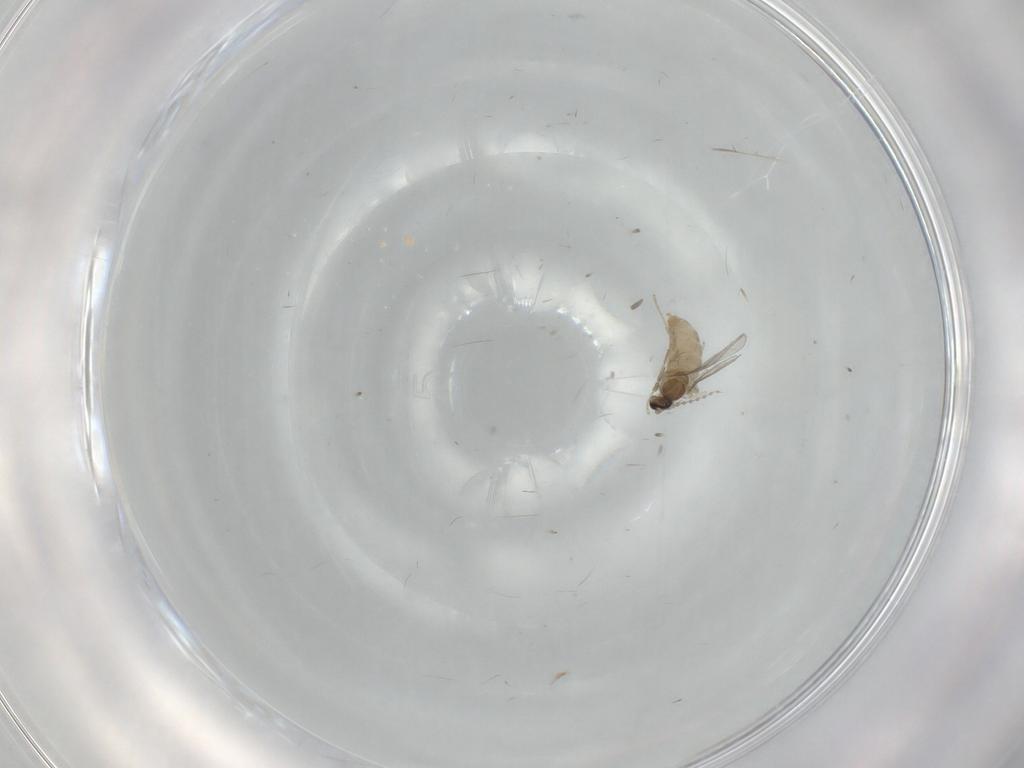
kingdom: Animalia
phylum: Arthropoda
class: Insecta
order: Diptera
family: Cecidomyiidae
